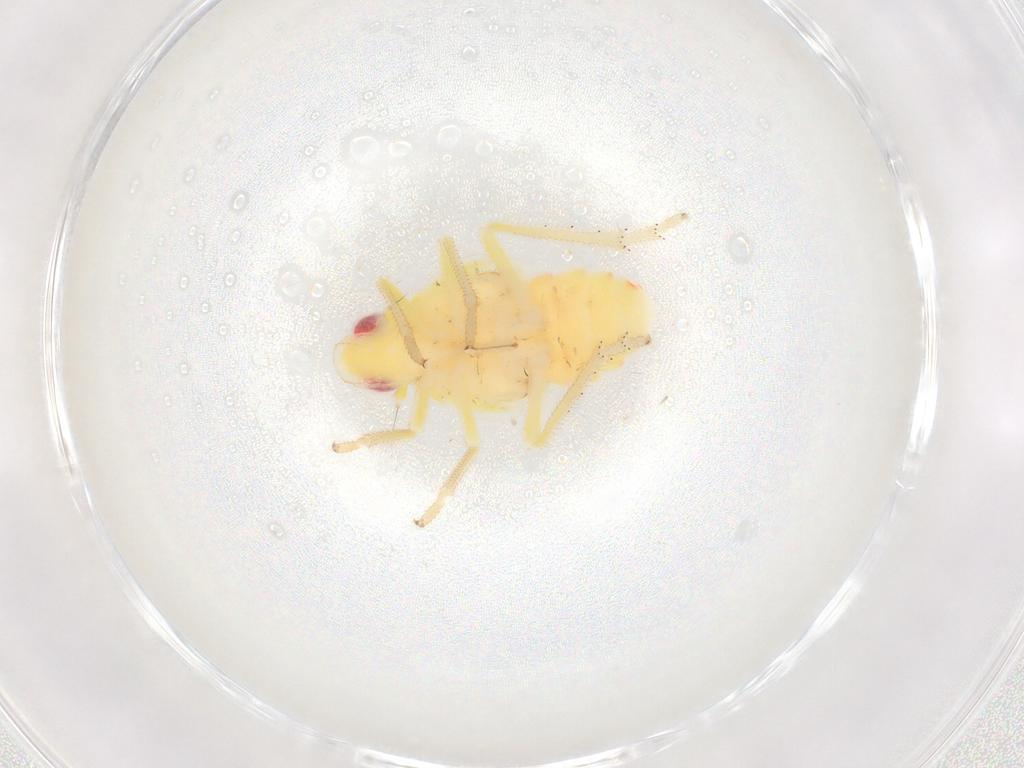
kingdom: Animalia
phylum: Arthropoda
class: Insecta
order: Hemiptera
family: Tropiduchidae
